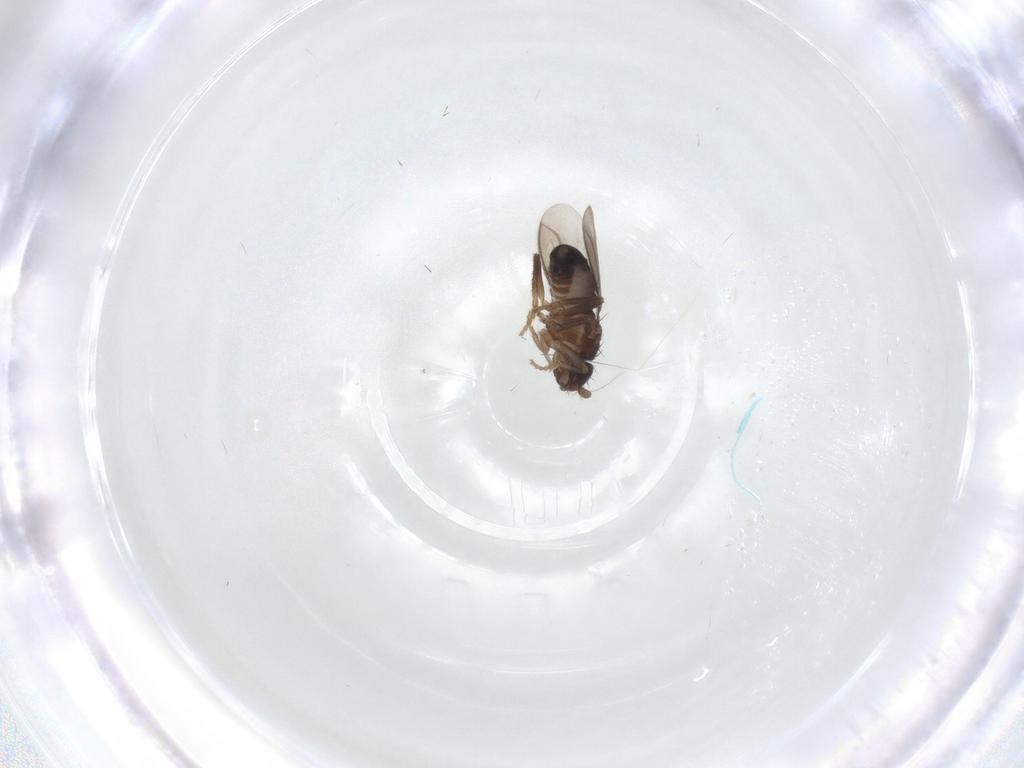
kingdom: Animalia
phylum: Arthropoda
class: Insecta
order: Diptera
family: Sphaeroceridae
